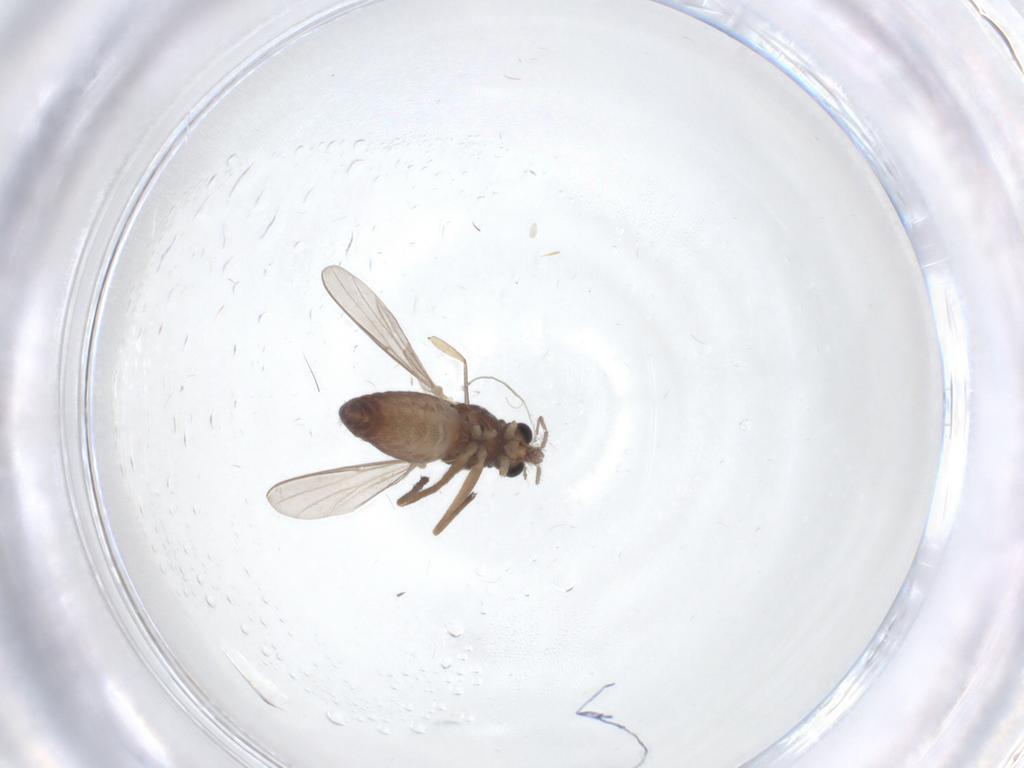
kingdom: Animalia
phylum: Arthropoda
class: Insecta
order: Diptera
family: Chironomidae
